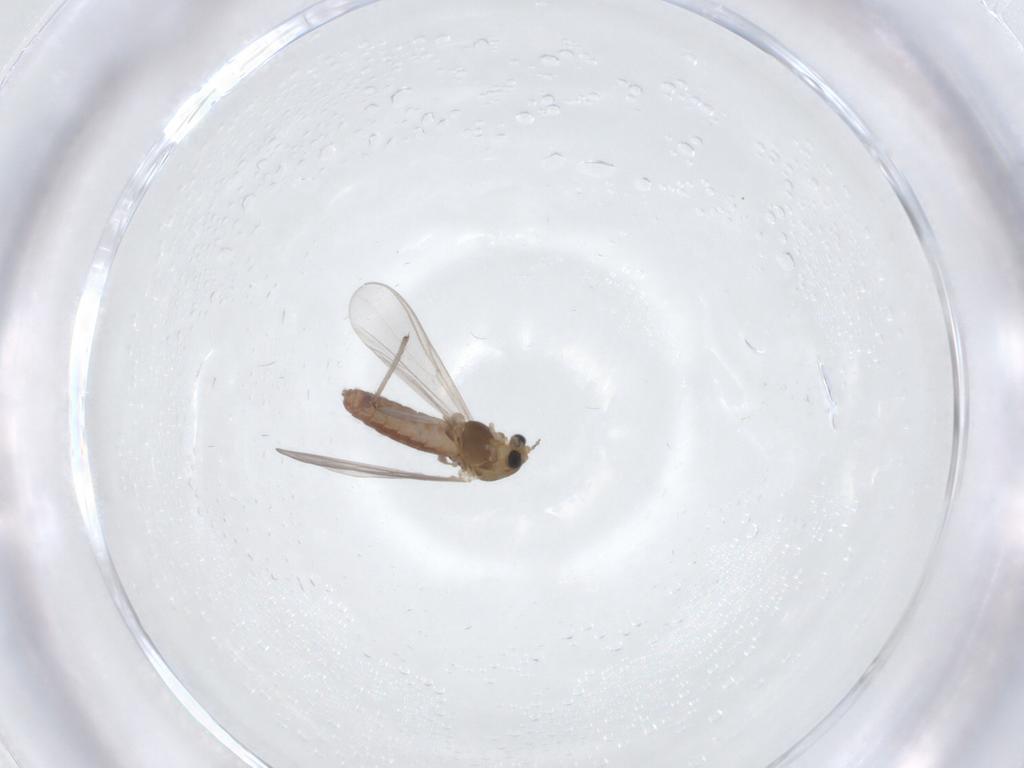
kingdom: Animalia
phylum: Arthropoda
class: Insecta
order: Diptera
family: Chironomidae
